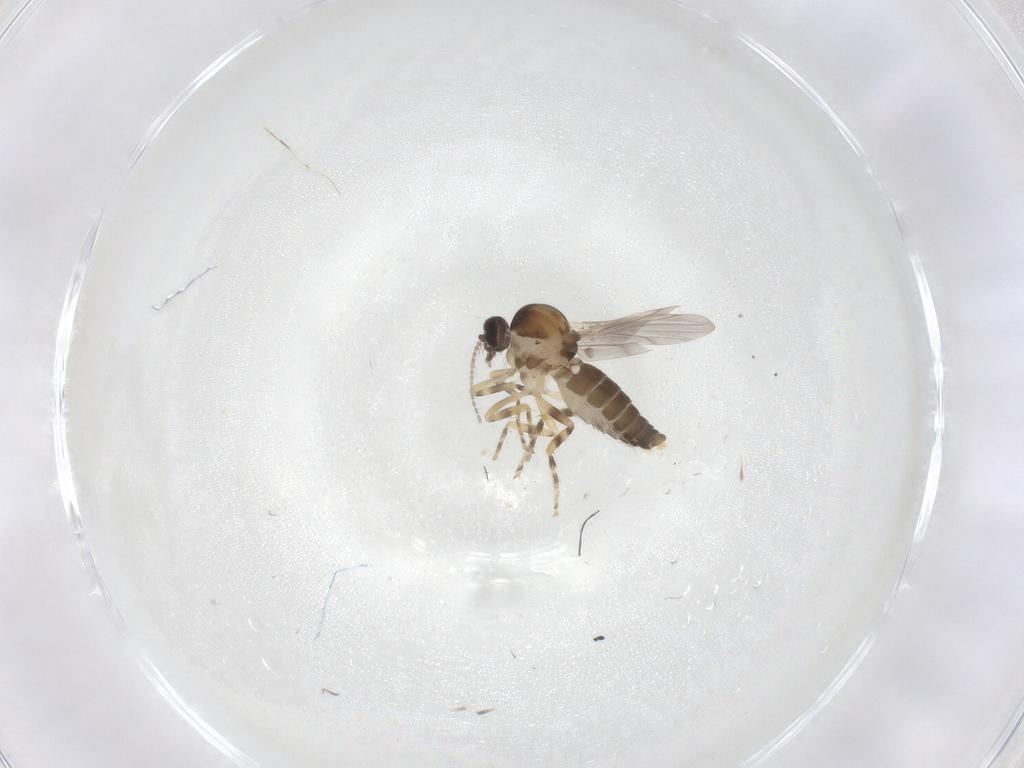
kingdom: Animalia
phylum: Arthropoda
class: Insecta
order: Diptera
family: Ceratopogonidae
